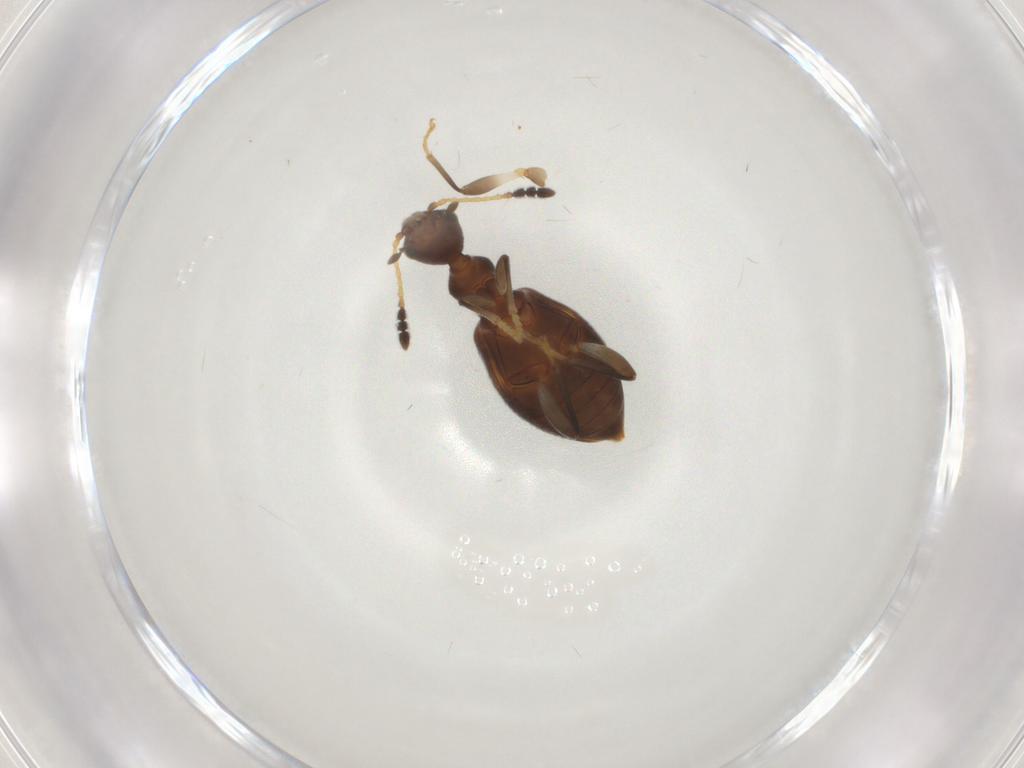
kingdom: Animalia
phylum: Arthropoda
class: Insecta
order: Coleoptera
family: Anthicidae
